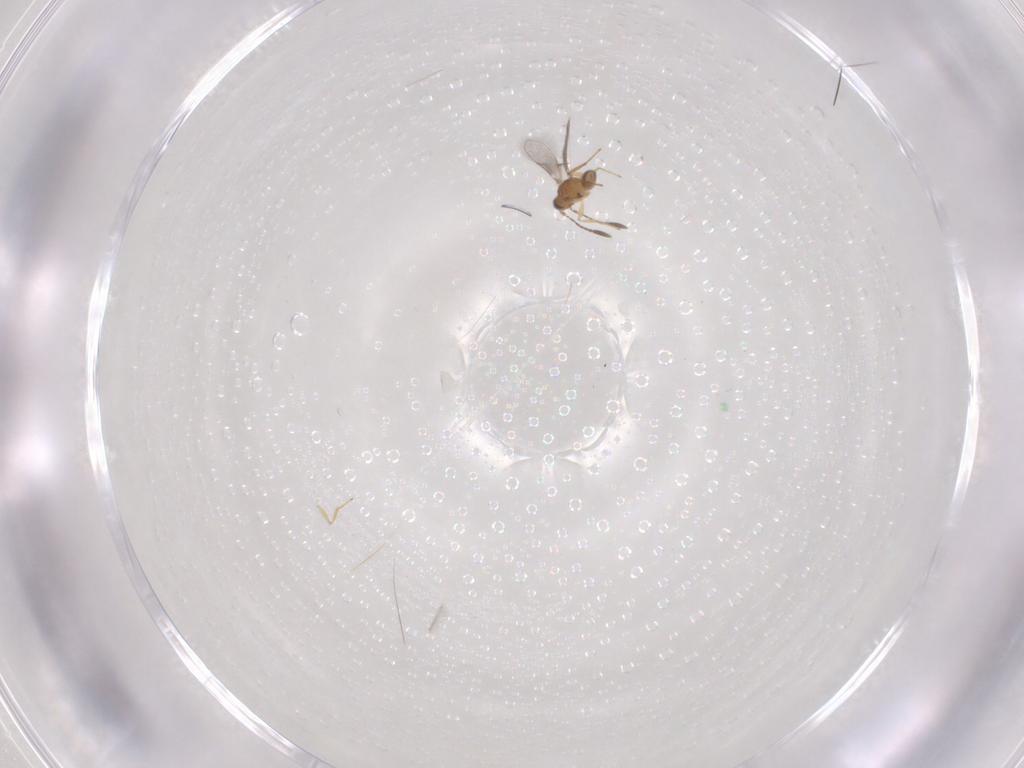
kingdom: Animalia
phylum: Arthropoda
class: Insecta
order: Hymenoptera
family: Mymaridae
